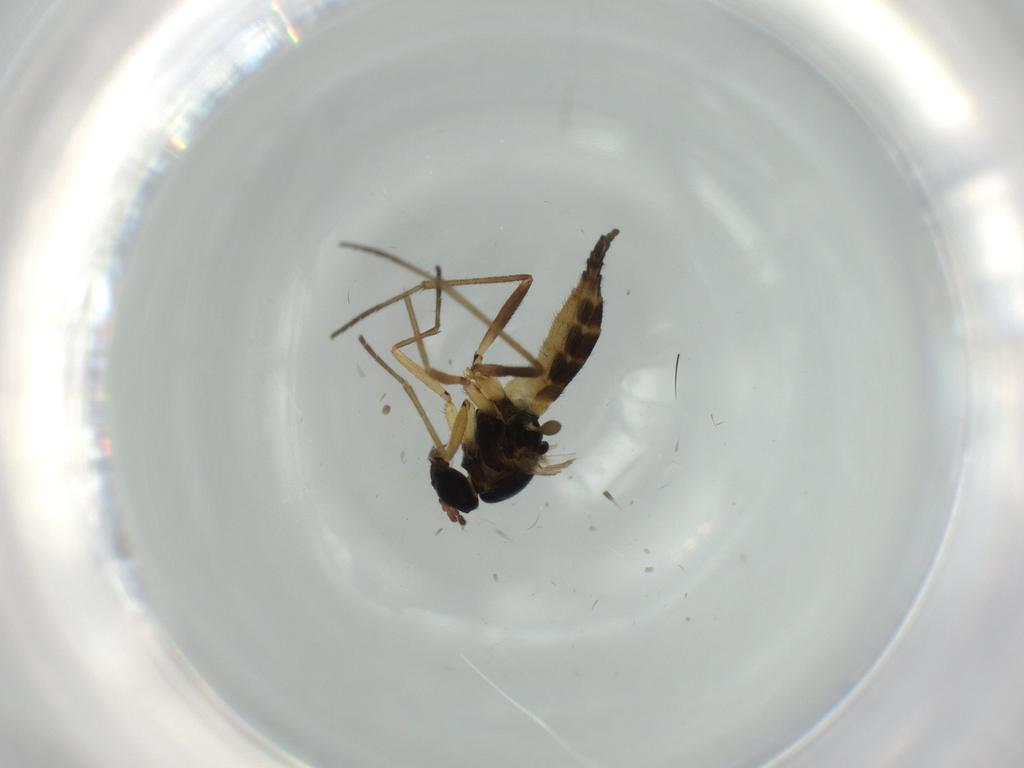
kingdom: Animalia
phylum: Arthropoda
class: Insecta
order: Diptera
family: Sciaridae
